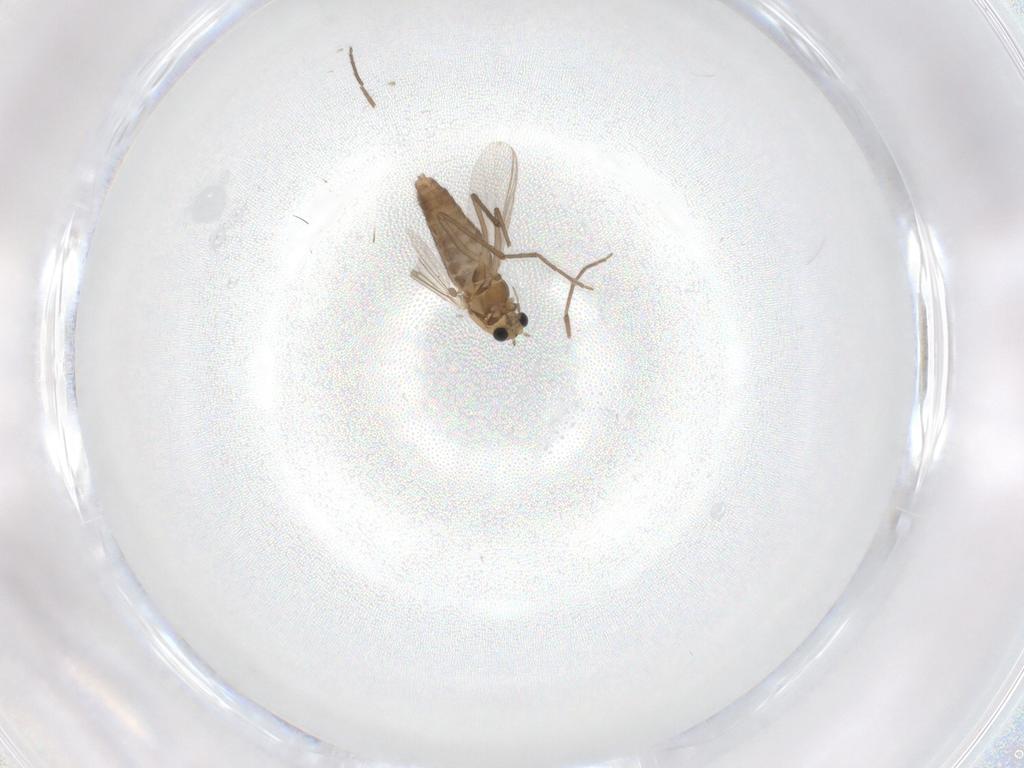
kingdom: Animalia
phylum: Arthropoda
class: Insecta
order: Diptera
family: Chironomidae
